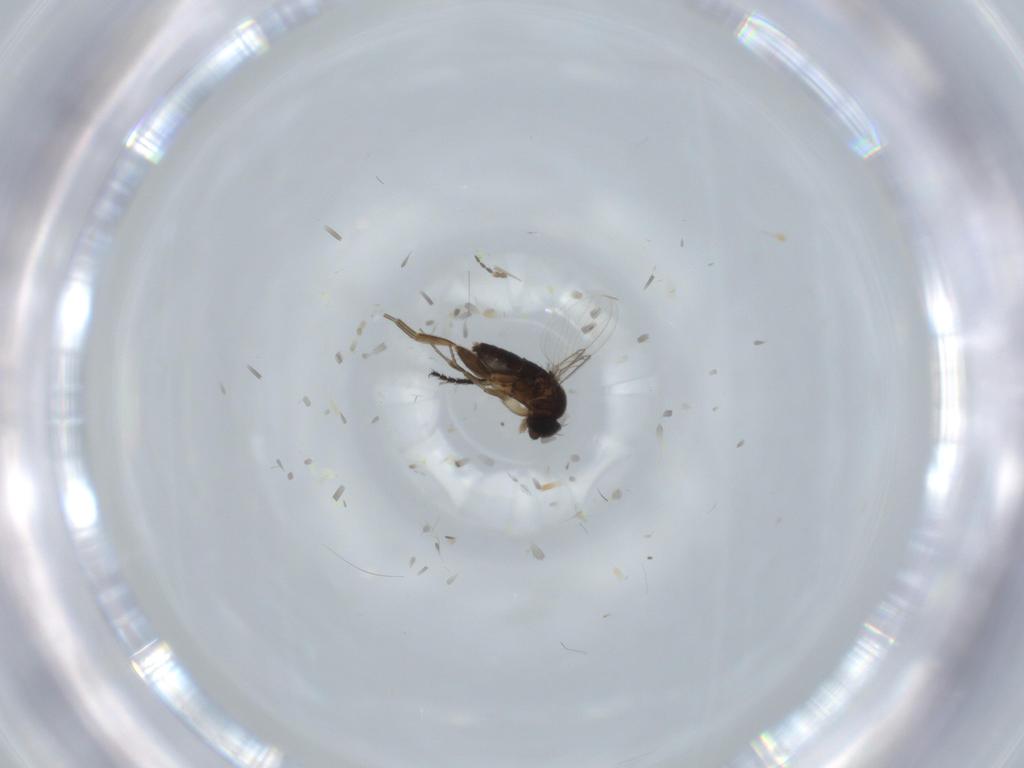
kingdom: Animalia
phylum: Arthropoda
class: Insecta
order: Diptera
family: Phoridae
